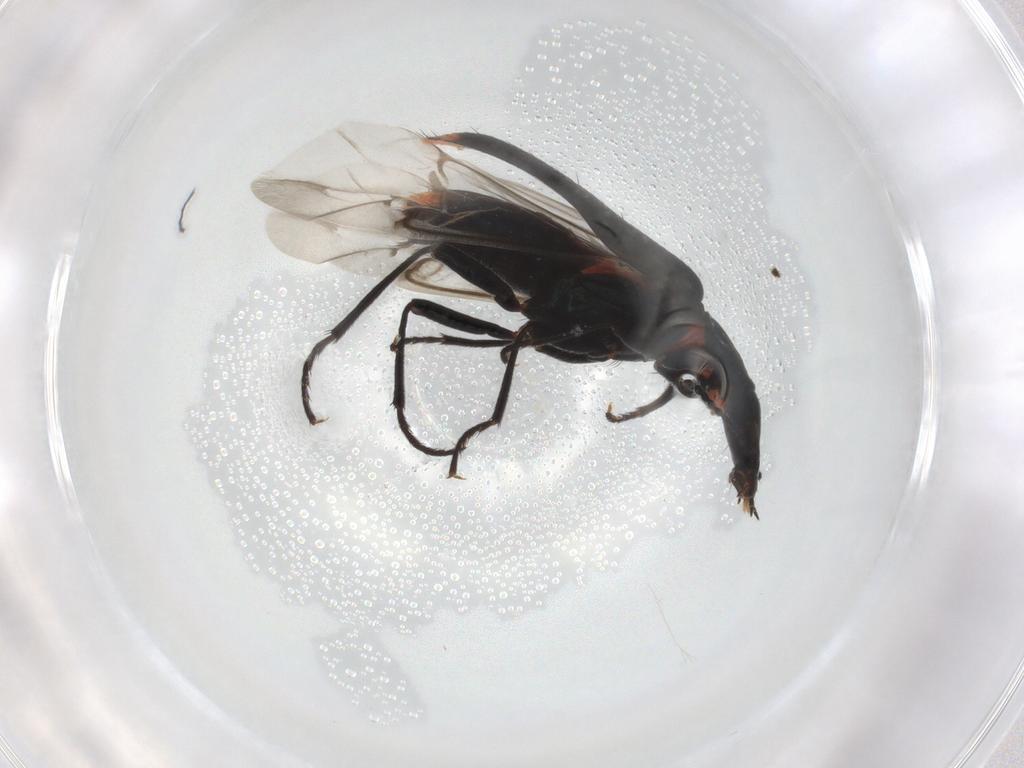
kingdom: Animalia
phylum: Arthropoda
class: Insecta
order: Coleoptera
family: Melyridae
